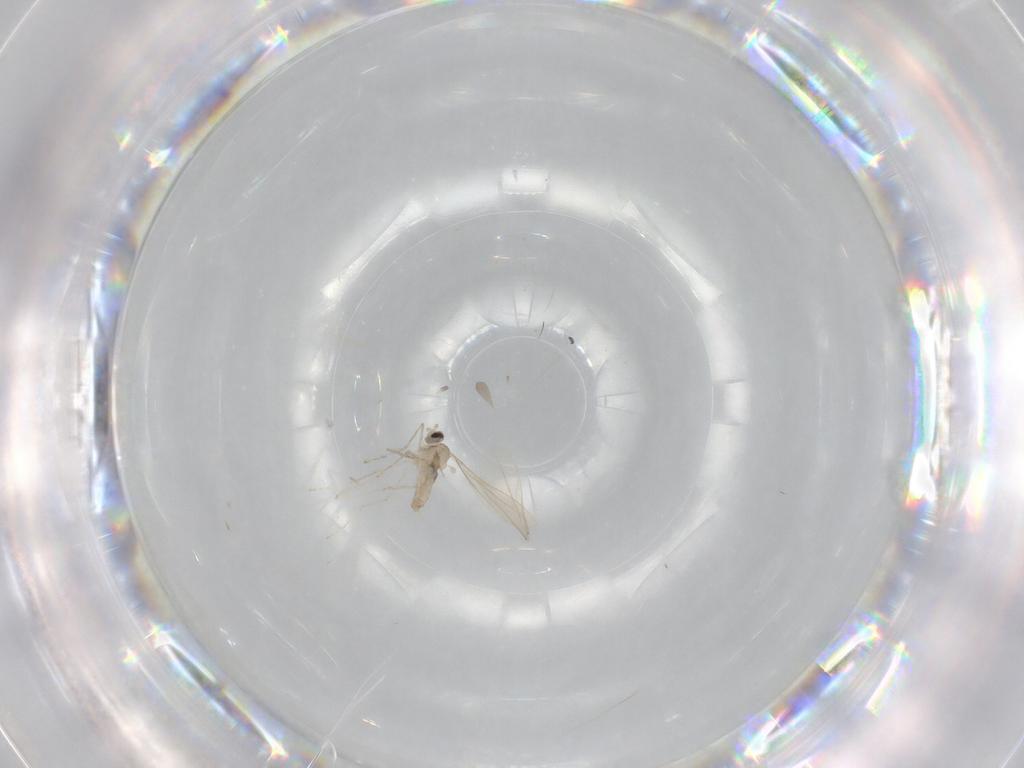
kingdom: Animalia
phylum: Arthropoda
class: Insecta
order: Diptera
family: Cecidomyiidae
